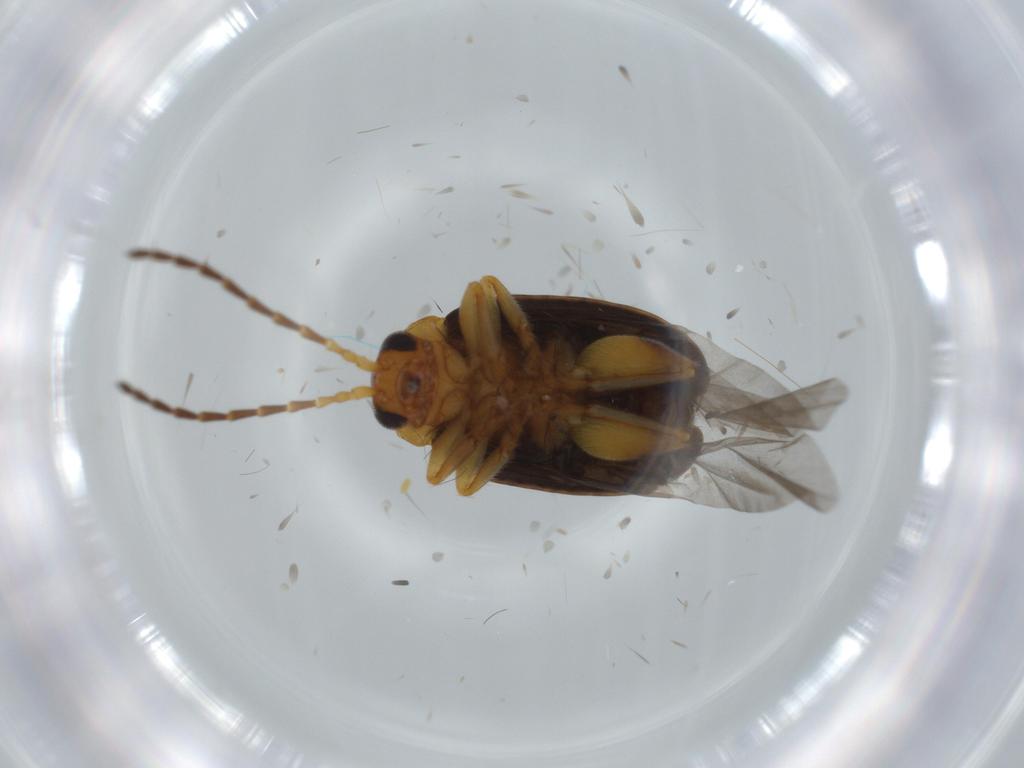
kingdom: Animalia
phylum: Arthropoda
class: Insecta
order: Coleoptera
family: Chrysomelidae
